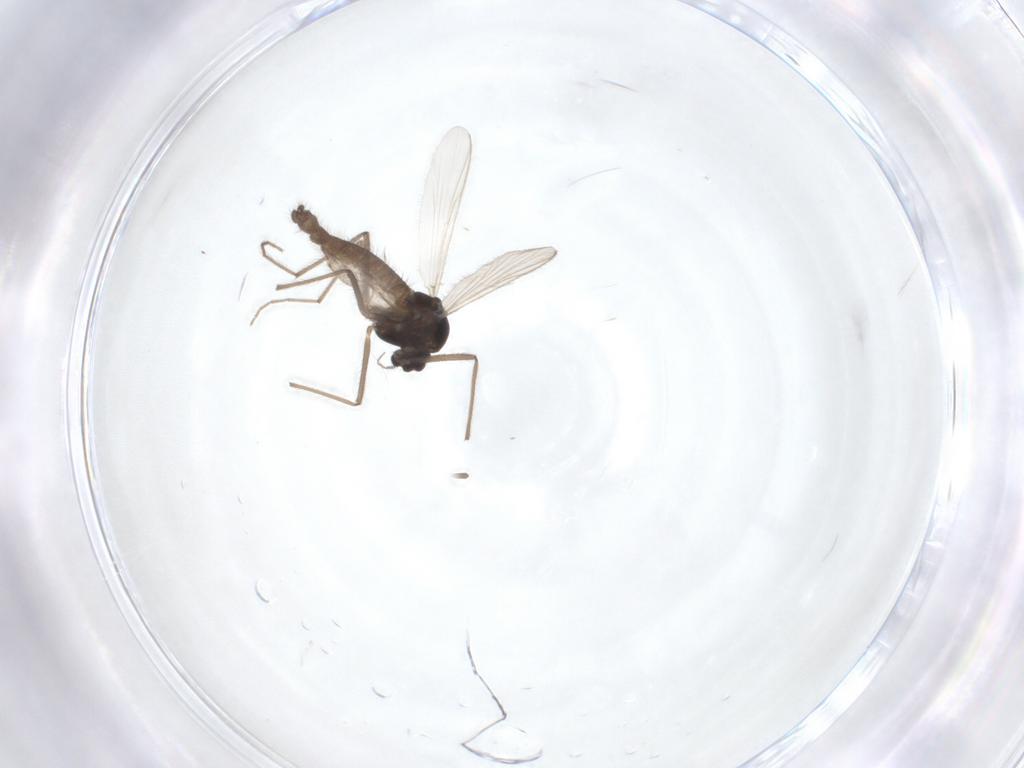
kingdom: Animalia
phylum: Arthropoda
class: Insecta
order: Diptera
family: Chironomidae
